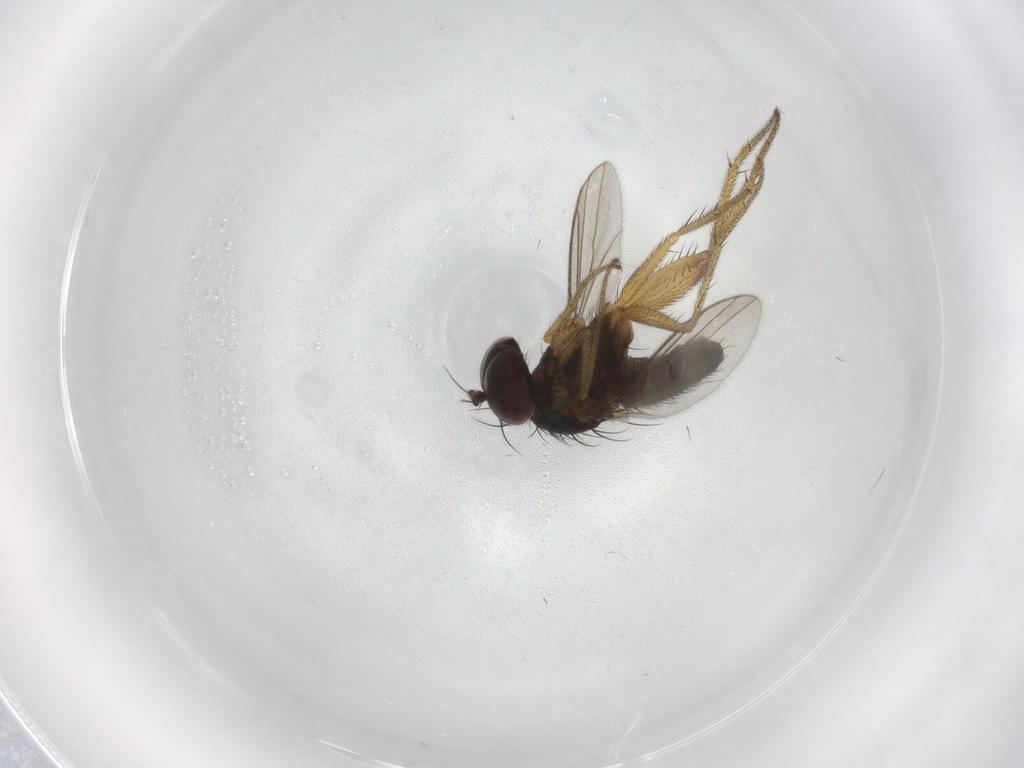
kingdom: Animalia
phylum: Arthropoda
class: Insecta
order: Diptera
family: Dolichopodidae
